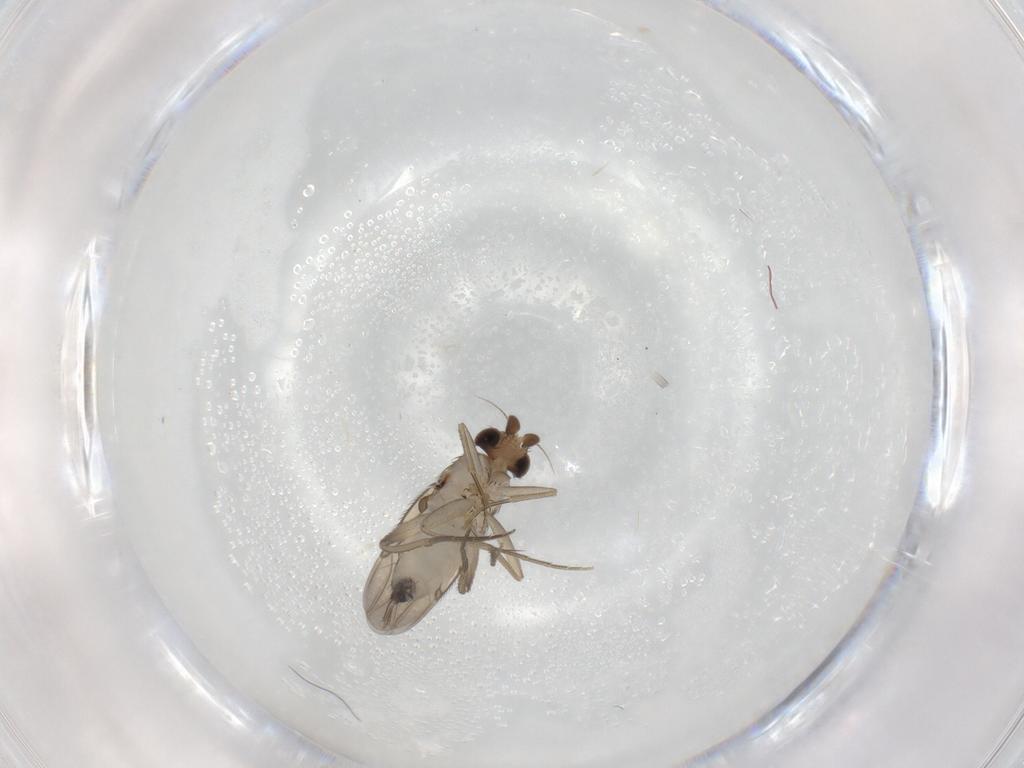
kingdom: Animalia
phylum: Arthropoda
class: Insecta
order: Diptera
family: Phoridae
